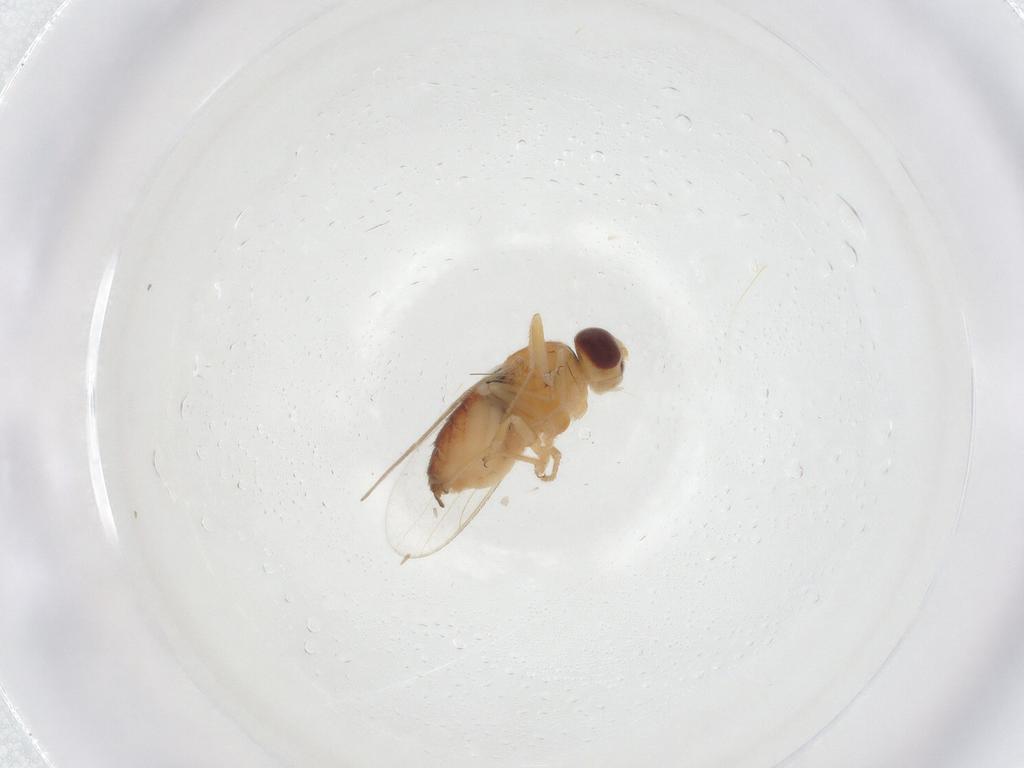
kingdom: Animalia
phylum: Arthropoda
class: Insecta
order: Diptera
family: Chloropidae
